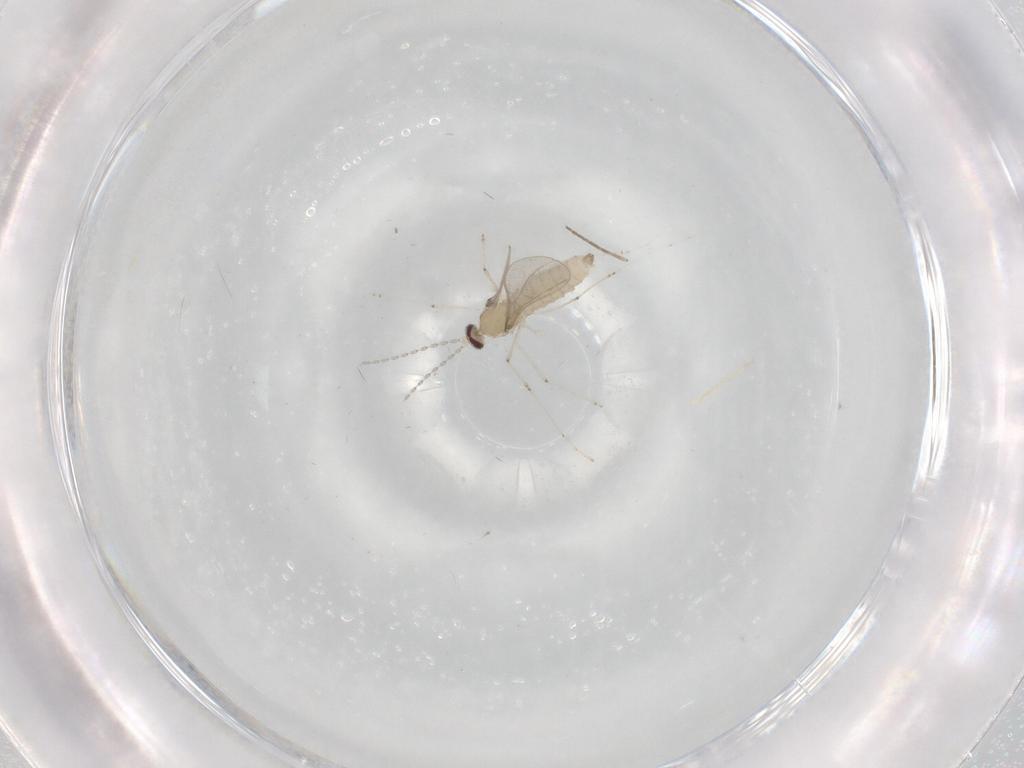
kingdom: Animalia
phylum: Arthropoda
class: Insecta
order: Diptera
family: Cecidomyiidae
